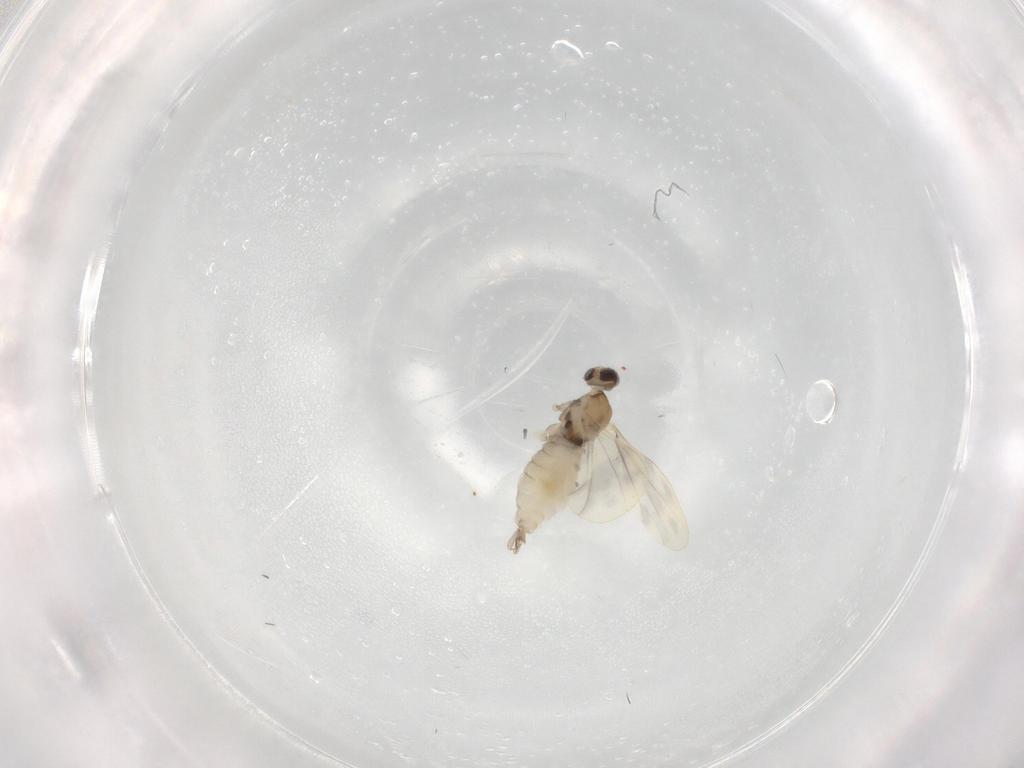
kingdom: Animalia
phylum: Arthropoda
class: Insecta
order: Diptera
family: Cecidomyiidae
